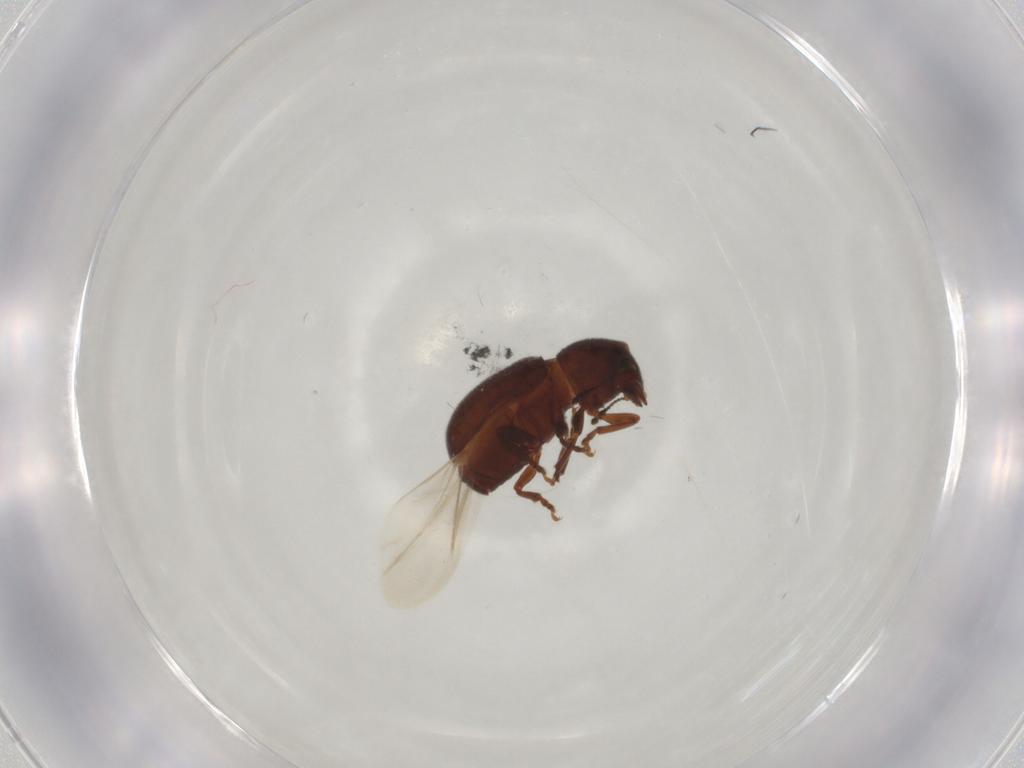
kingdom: Animalia
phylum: Arthropoda
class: Insecta
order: Coleoptera
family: Anthribidae
